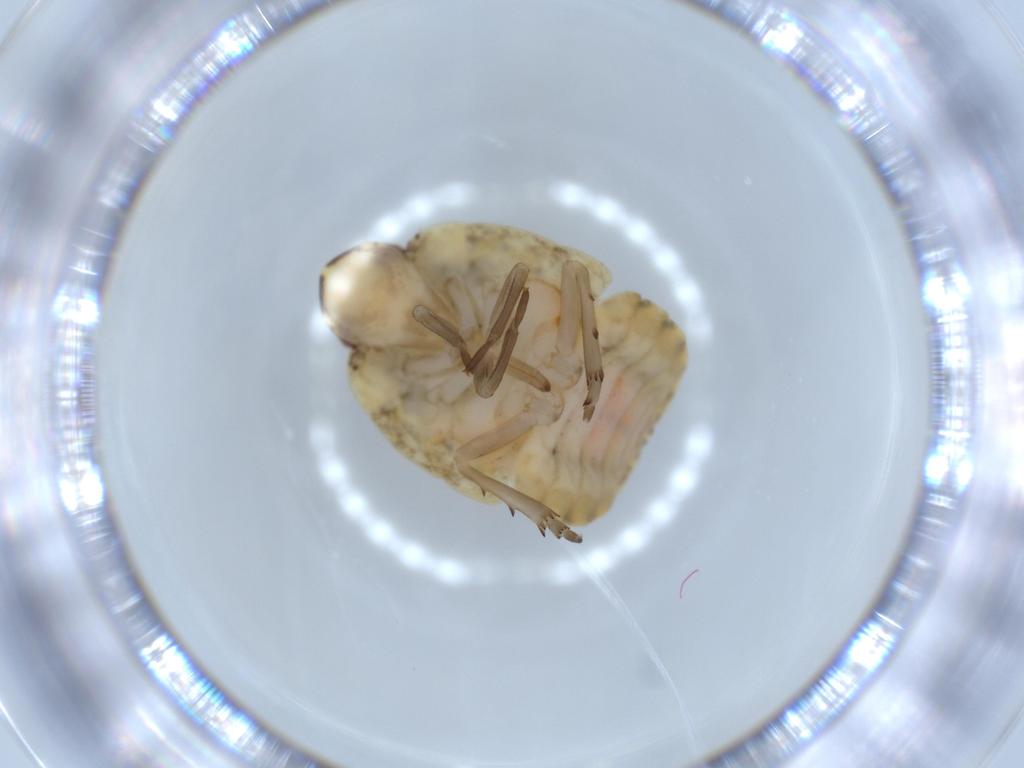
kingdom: Animalia
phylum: Arthropoda
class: Insecta
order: Hemiptera
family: Flatidae
